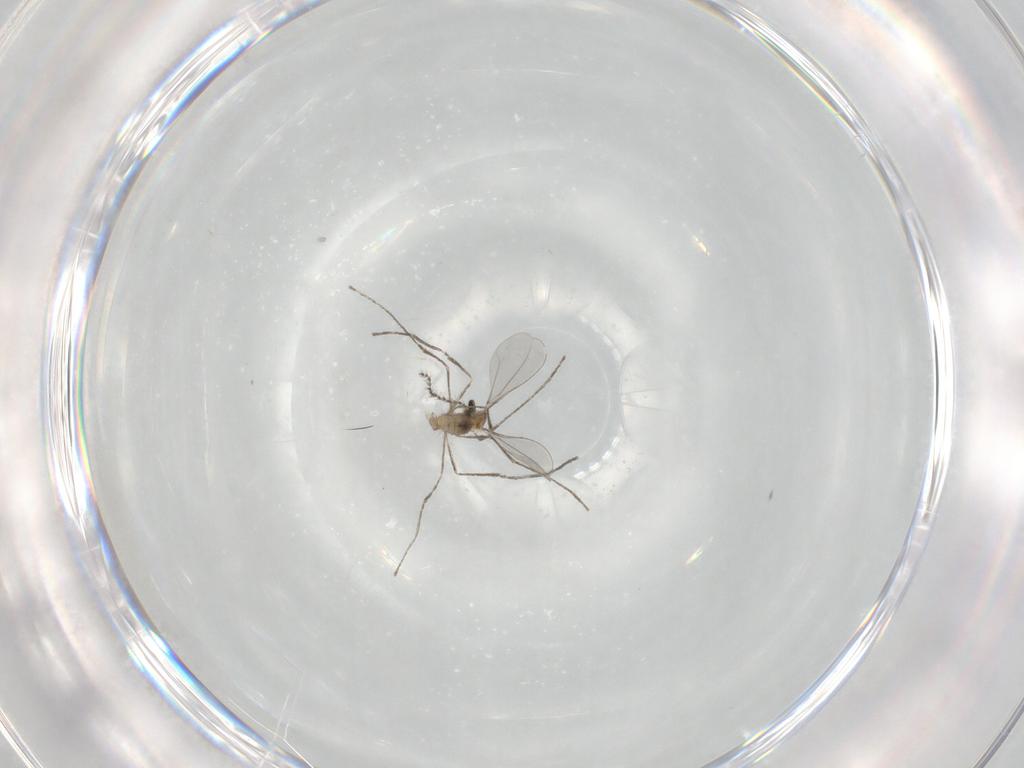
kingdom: Animalia
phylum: Arthropoda
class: Insecta
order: Diptera
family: Cecidomyiidae
